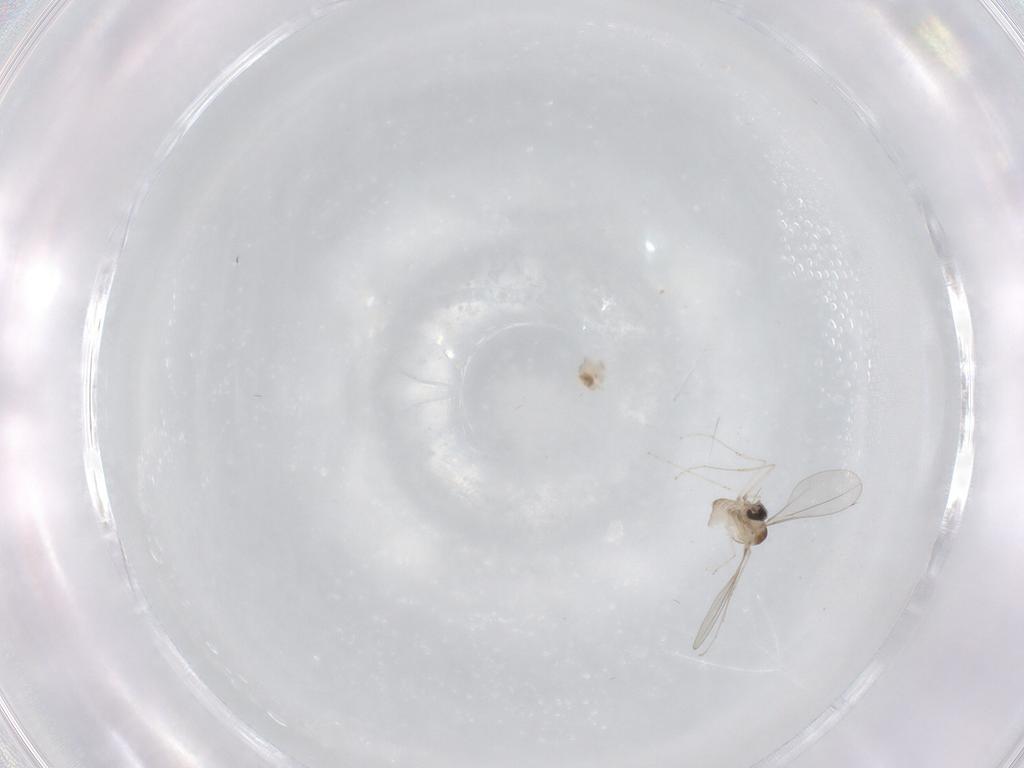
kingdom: Animalia
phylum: Arthropoda
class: Insecta
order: Diptera
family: Cecidomyiidae
